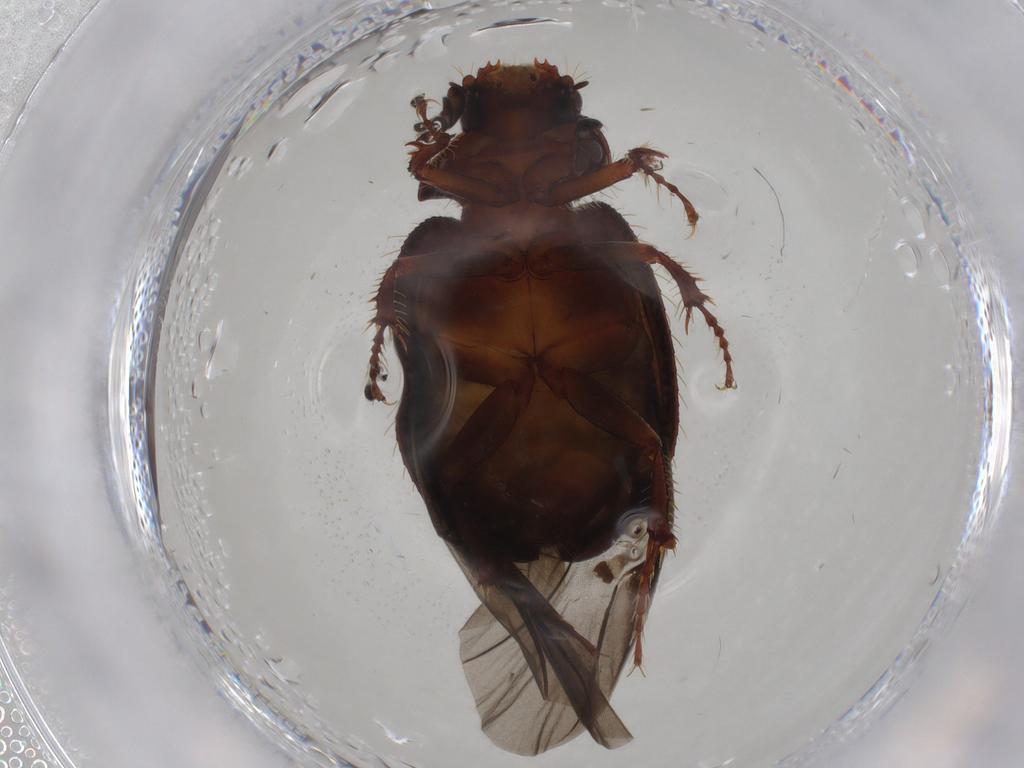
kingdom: Animalia
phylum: Arthropoda
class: Insecta
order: Coleoptera
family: Hybosoridae
